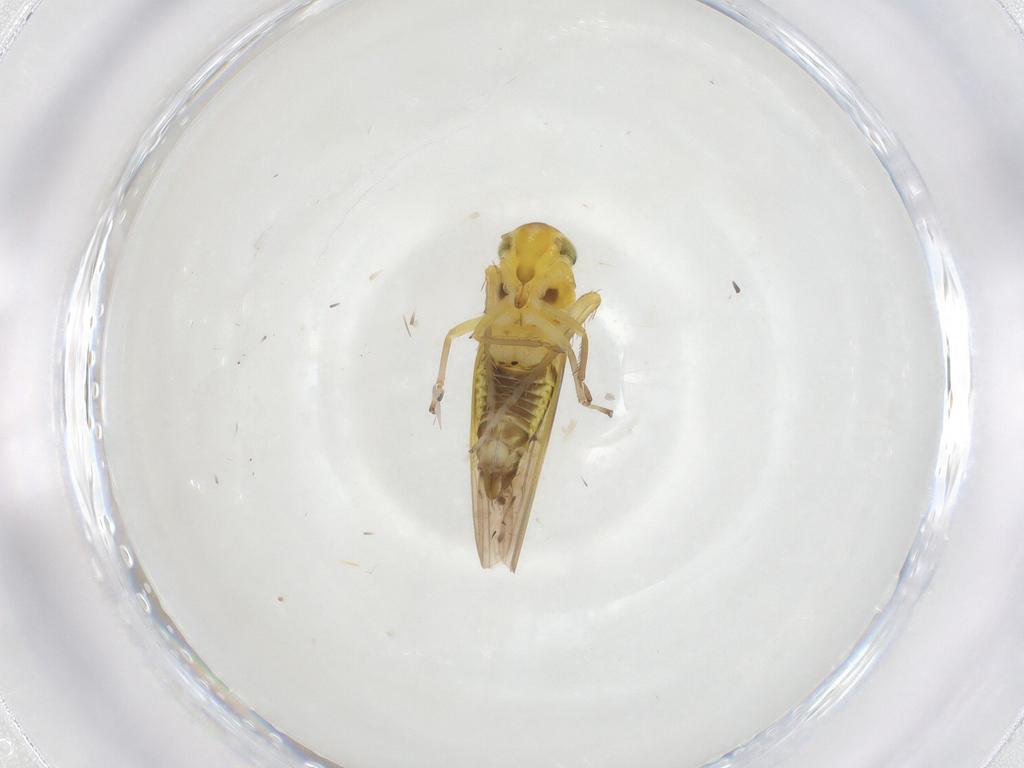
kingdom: Animalia
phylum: Arthropoda
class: Insecta
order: Hemiptera
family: Cicadellidae
